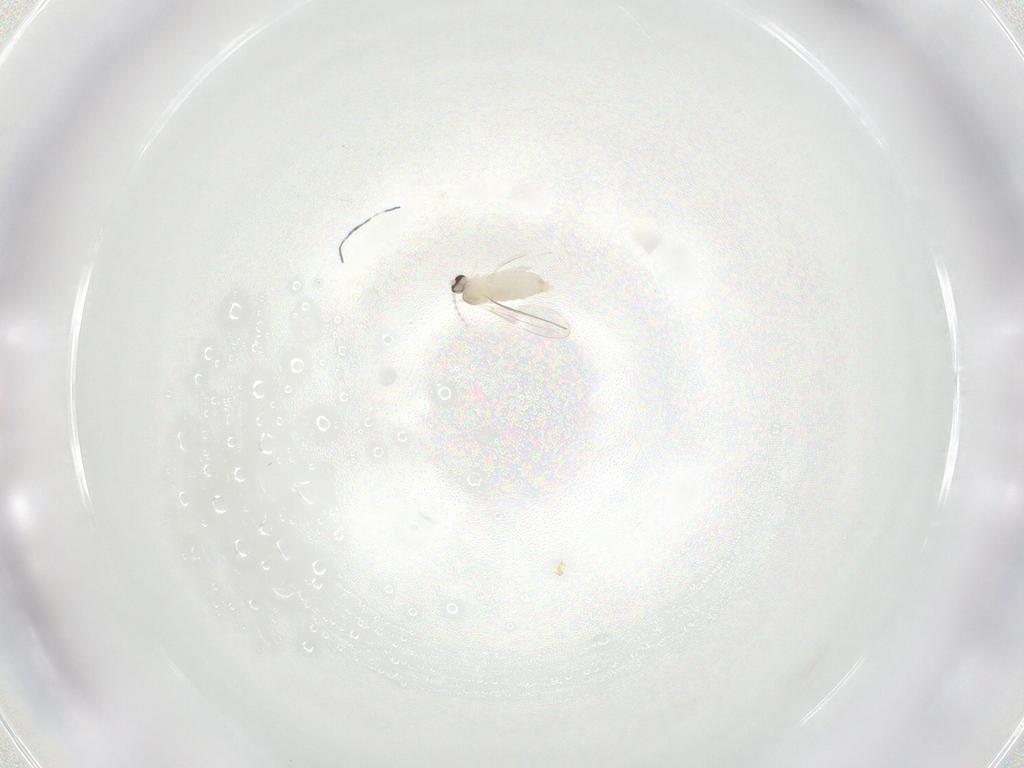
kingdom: Animalia
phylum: Arthropoda
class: Insecta
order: Diptera
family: Cecidomyiidae
